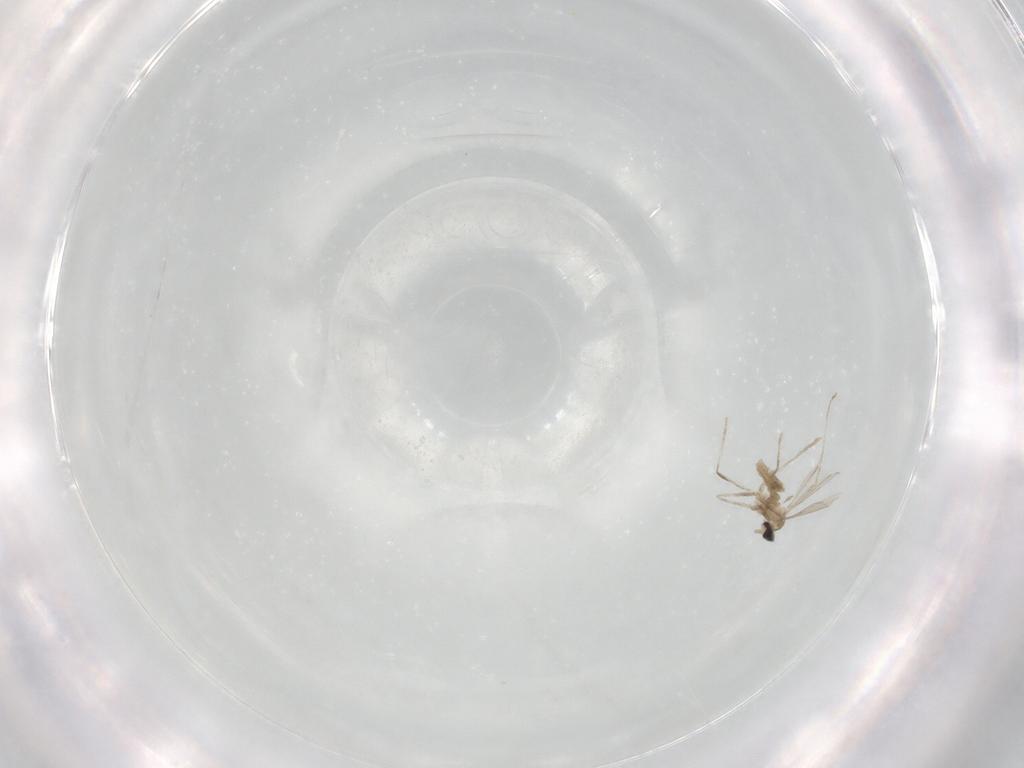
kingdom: Animalia
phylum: Arthropoda
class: Insecta
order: Diptera
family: Cecidomyiidae
